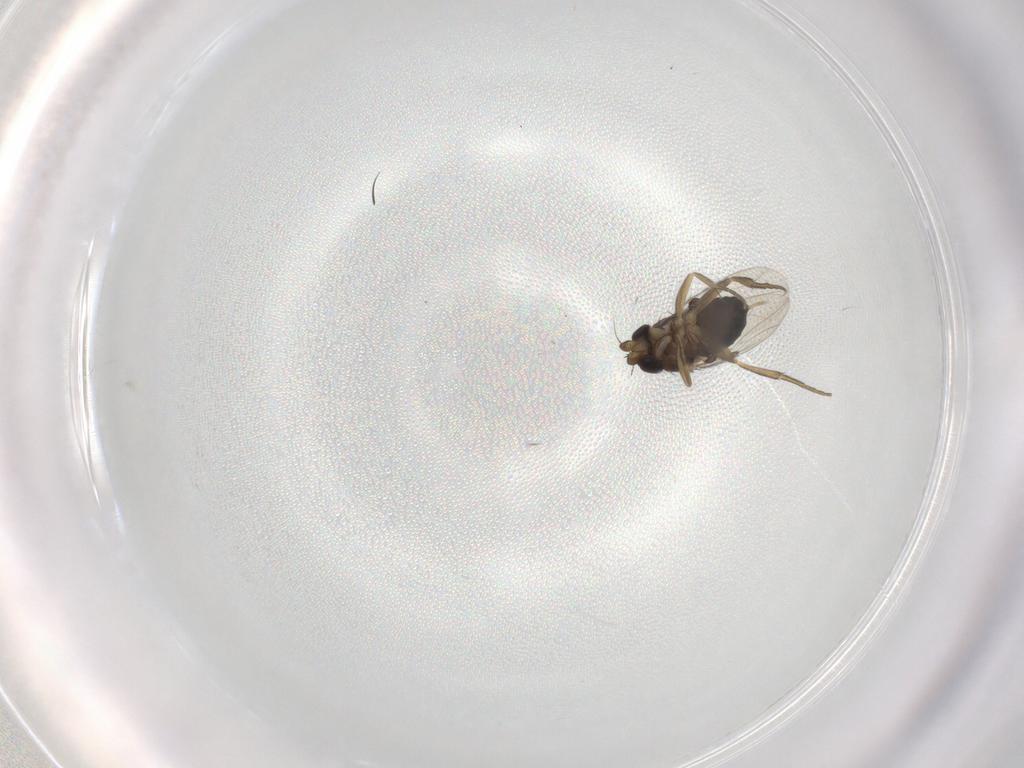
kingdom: Animalia
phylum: Arthropoda
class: Insecta
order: Diptera
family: Phoridae
